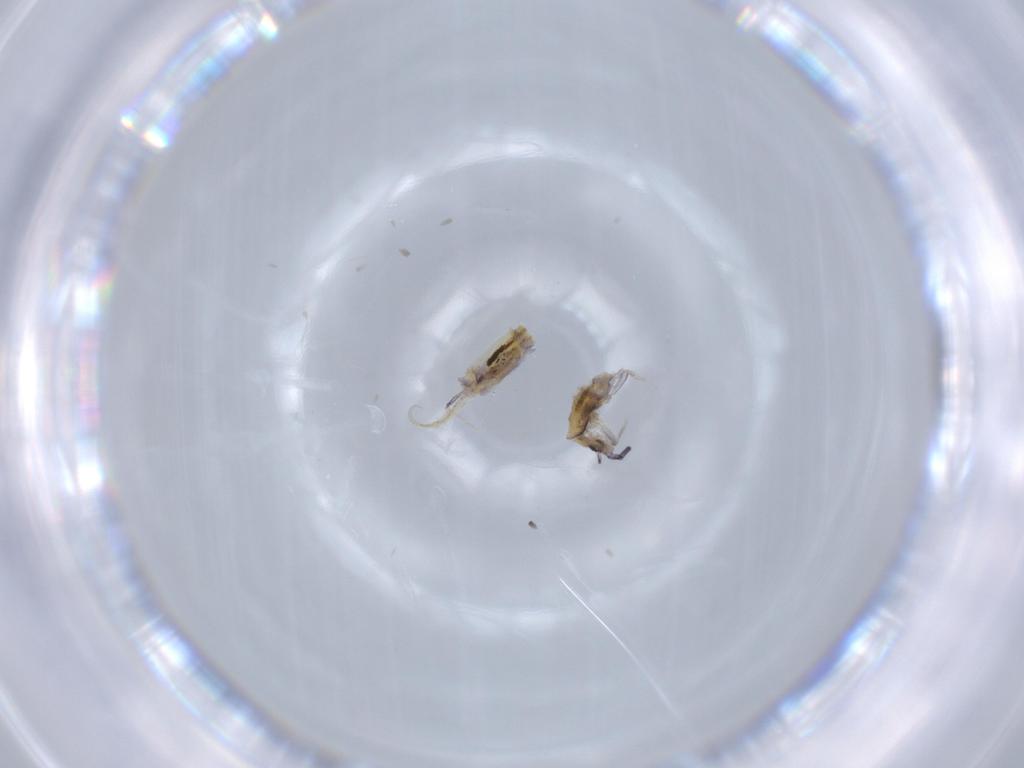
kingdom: Animalia
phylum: Arthropoda
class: Collembola
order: Poduromorpha
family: Hypogastruridae
